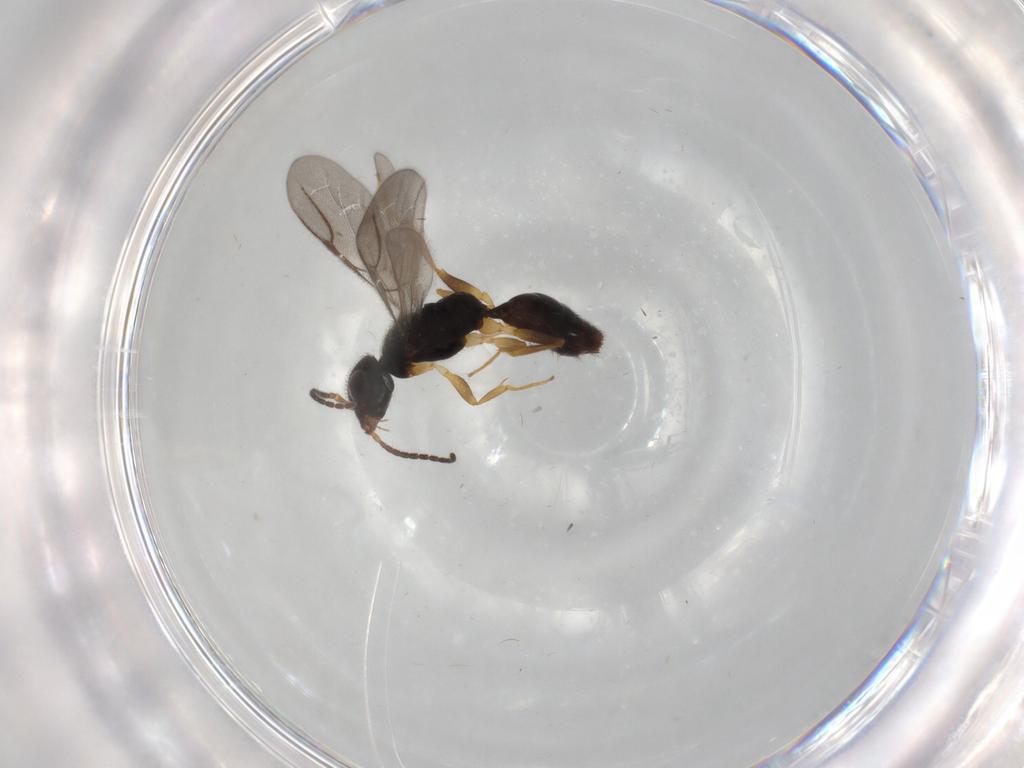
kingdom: Animalia
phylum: Arthropoda
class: Insecta
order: Hymenoptera
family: Bethylidae
